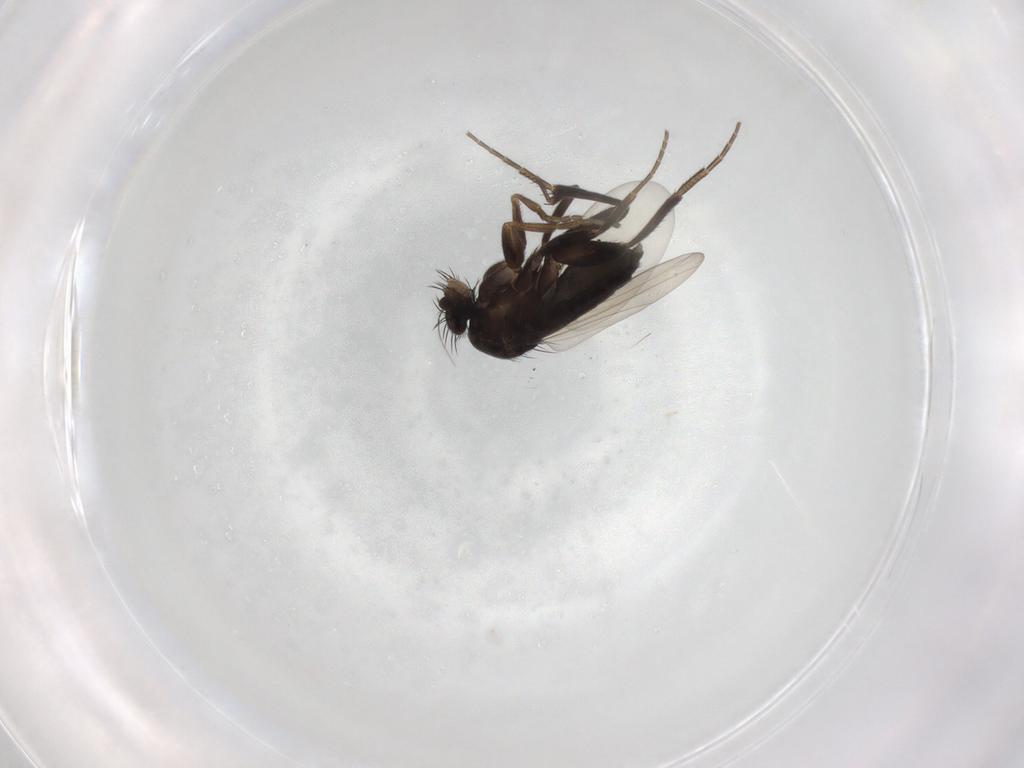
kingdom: Animalia
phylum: Arthropoda
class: Insecta
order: Diptera
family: Phoridae
